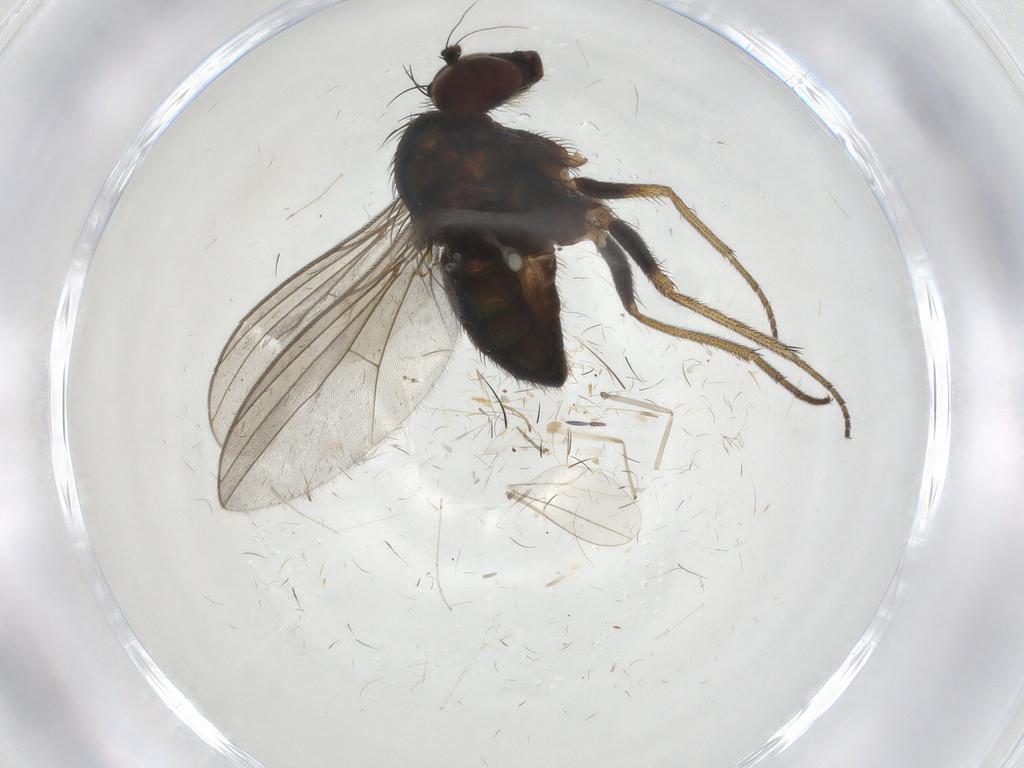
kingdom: Animalia
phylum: Arthropoda
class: Insecta
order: Diptera
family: Chironomidae
